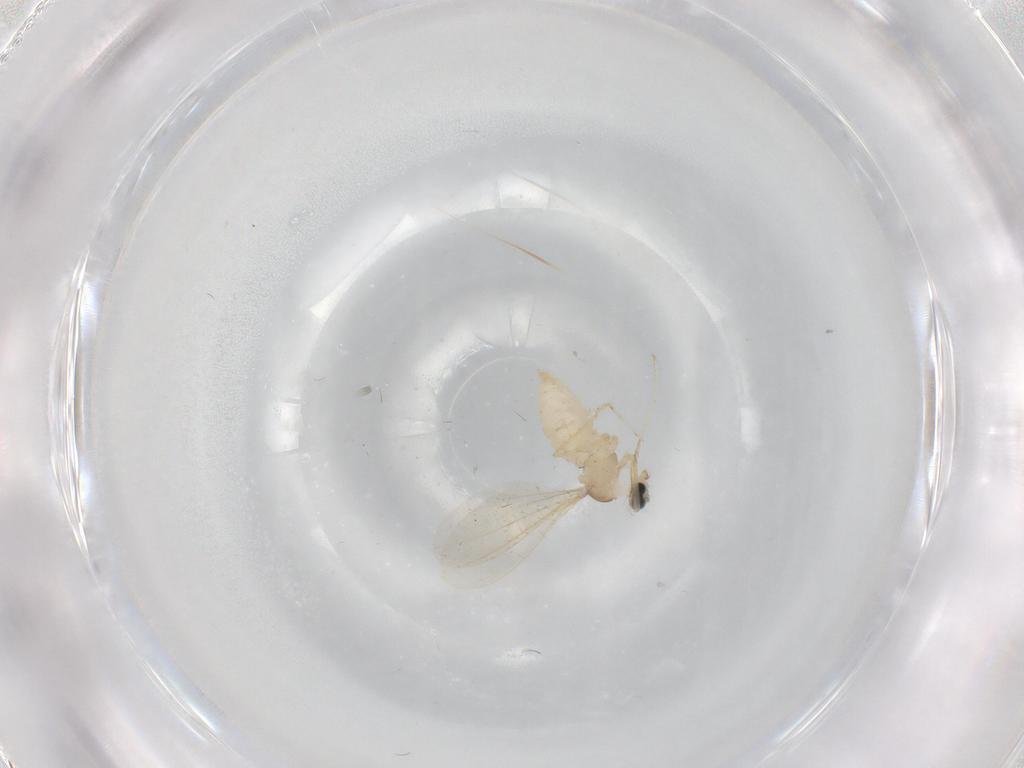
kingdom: Animalia
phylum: Arthropoda
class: Insecta
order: Diptera
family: Cecidomyiidae
